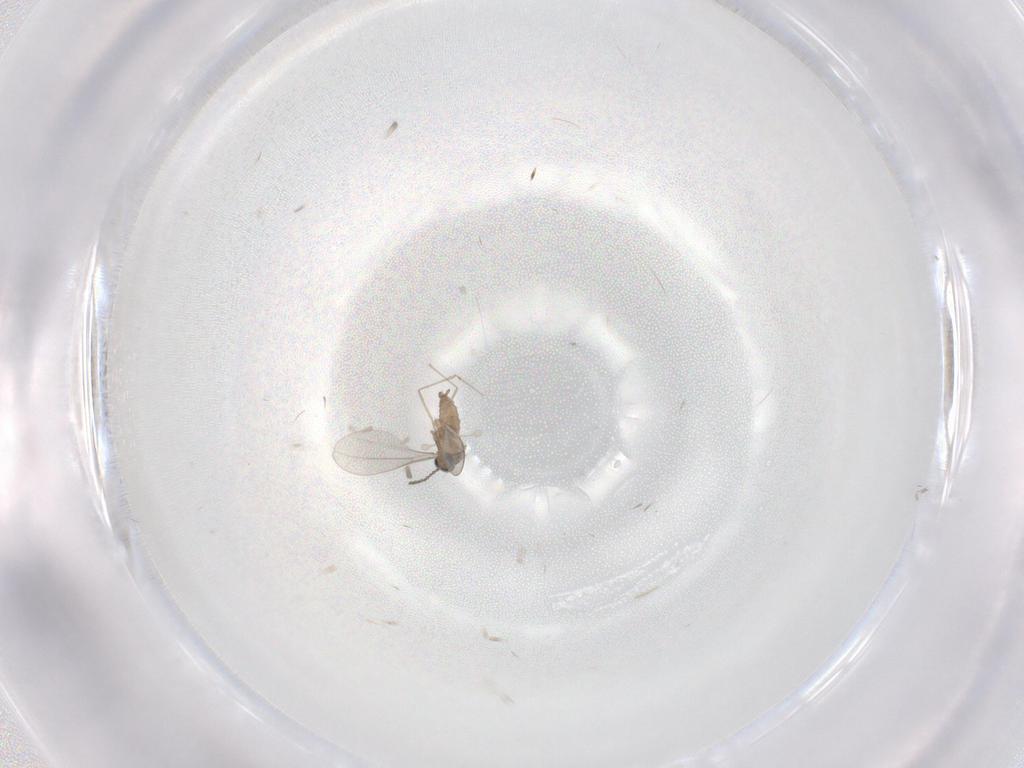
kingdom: Animalia
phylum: Arthropoda
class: Insecta
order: Diptera
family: Cecidomyiidae
